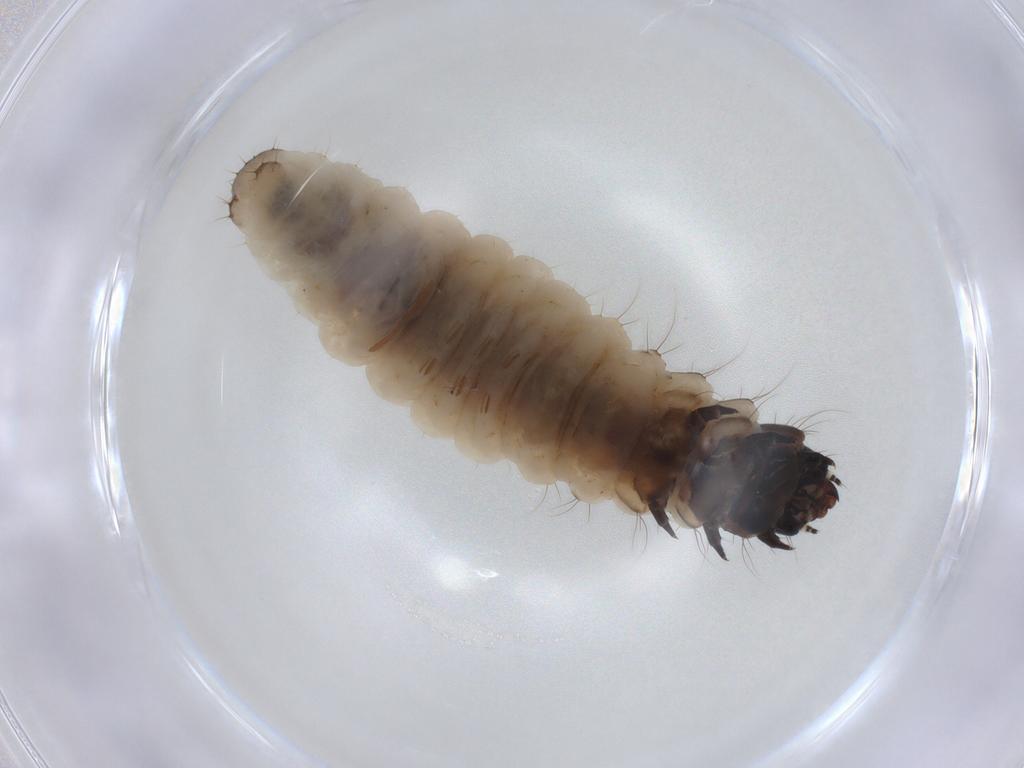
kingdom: Animalia
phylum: Arthropoda
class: Insecta
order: Lepidoptera
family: Adelidae
